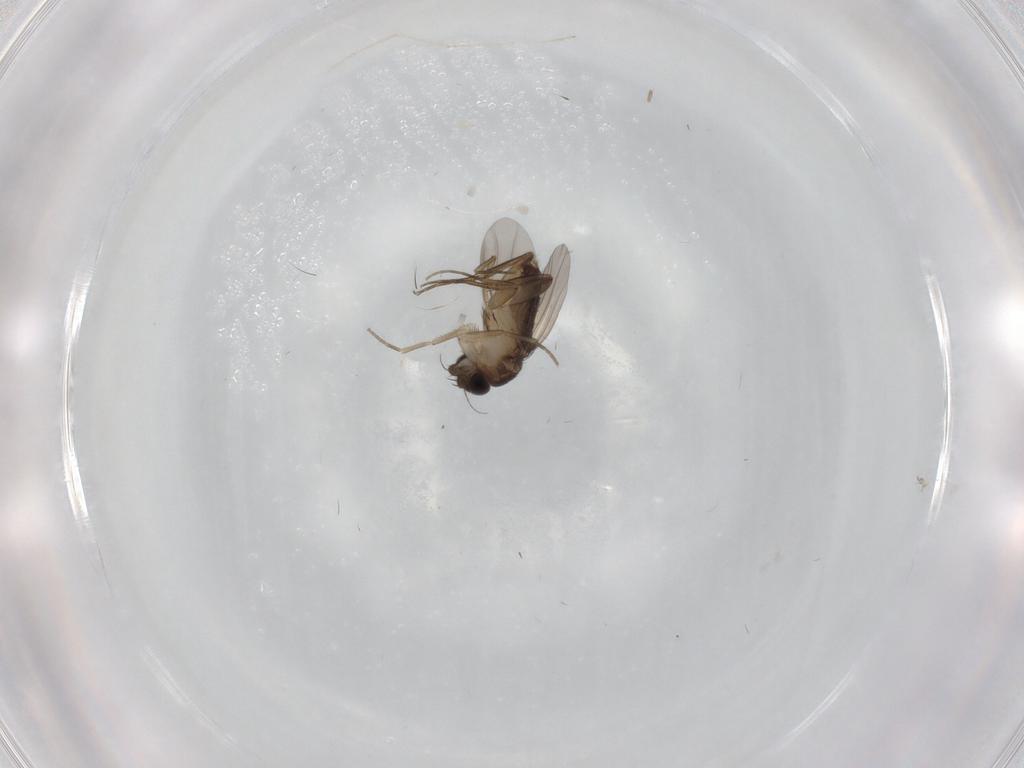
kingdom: Animalia
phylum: Arthropoda
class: Insecta
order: Diptera
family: Phoridae
